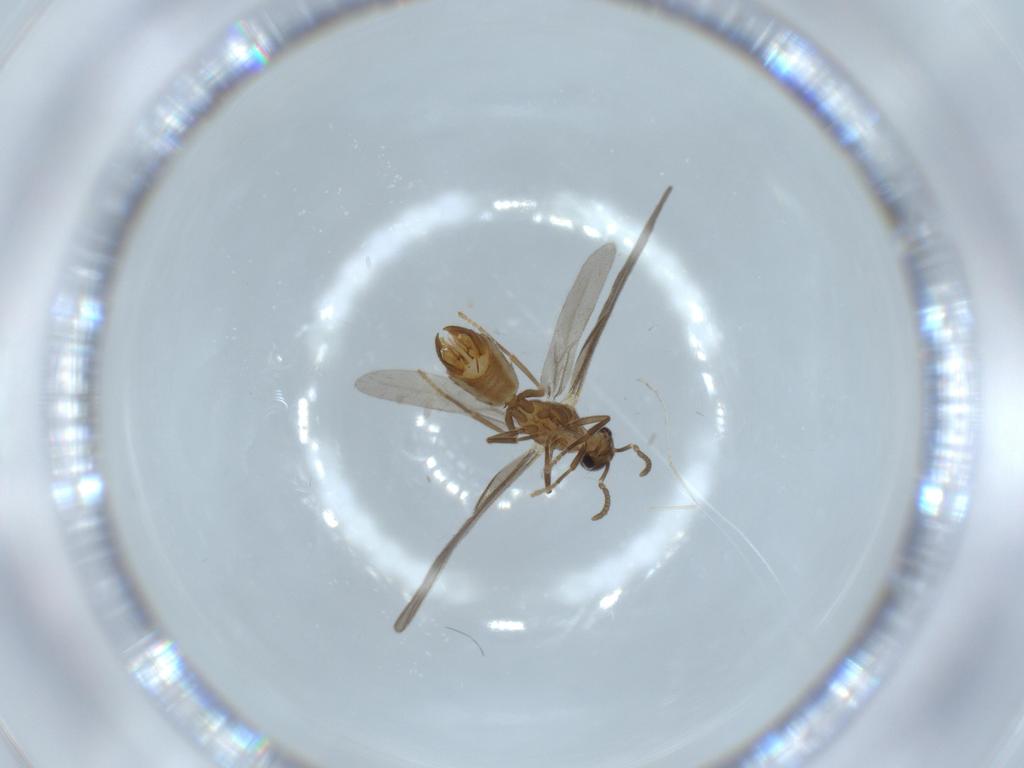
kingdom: Animalia
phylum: Arthropoda
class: Insecta
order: Hymenoptera
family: Formicidae
